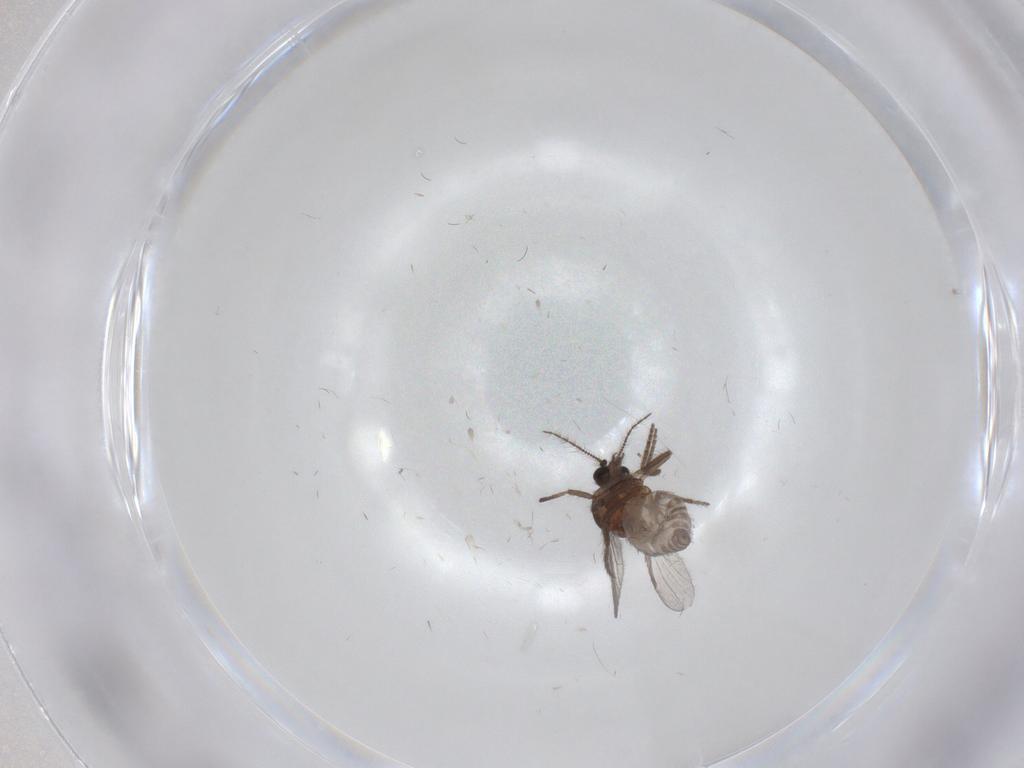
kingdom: Animalia
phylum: Arthropoda
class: Insecta
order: Diptera
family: Chironomidae
